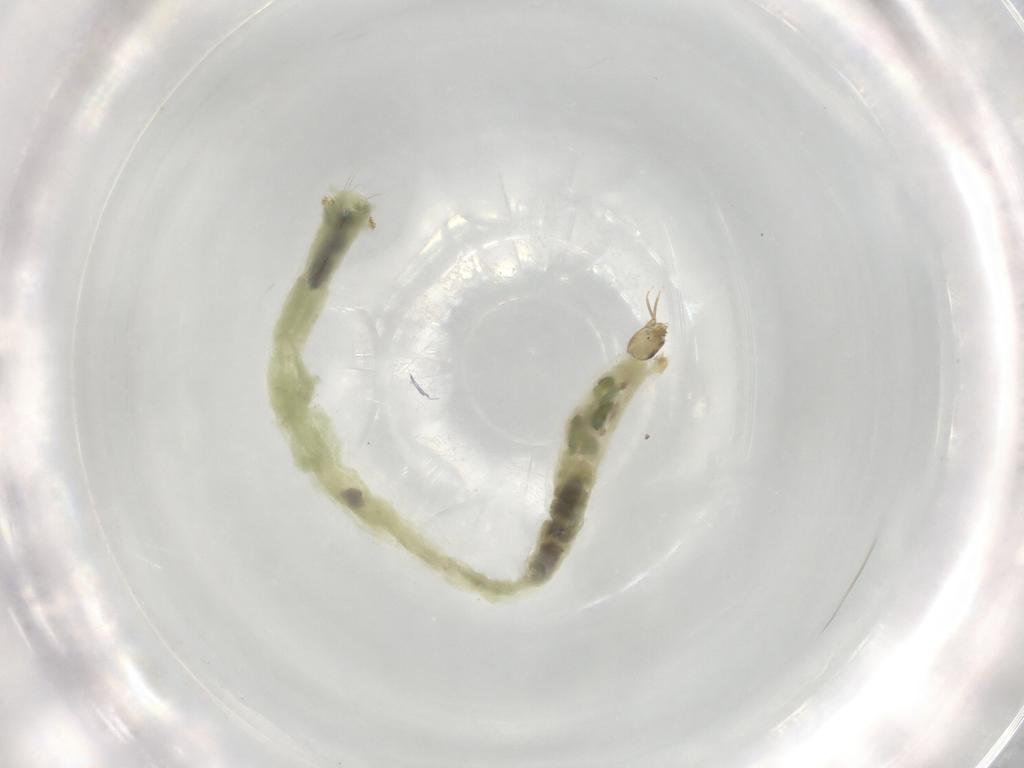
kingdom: Animalia
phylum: Arthropoda
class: Insecta
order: Diptera
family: Chironomidae
